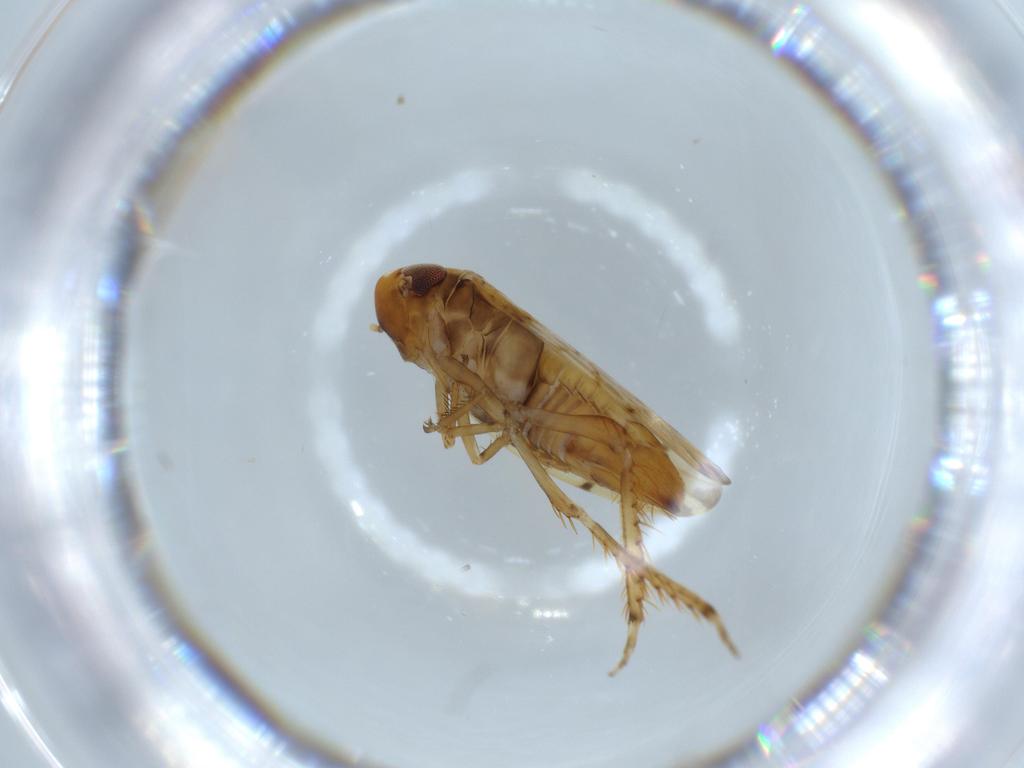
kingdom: Animalia
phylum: Arthropoda
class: Insecta
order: Hemiptera
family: Cicadellidae
